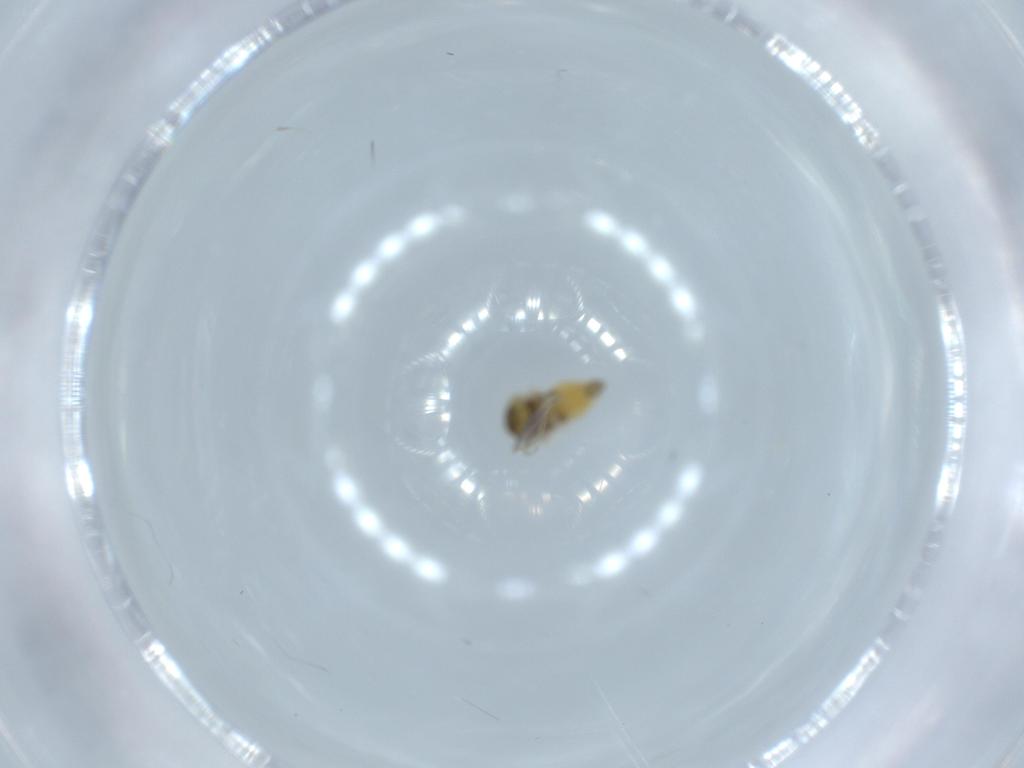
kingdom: Animalia
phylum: Arthropoda
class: Insecta
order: Hemiptera
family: Aleyrodidae
